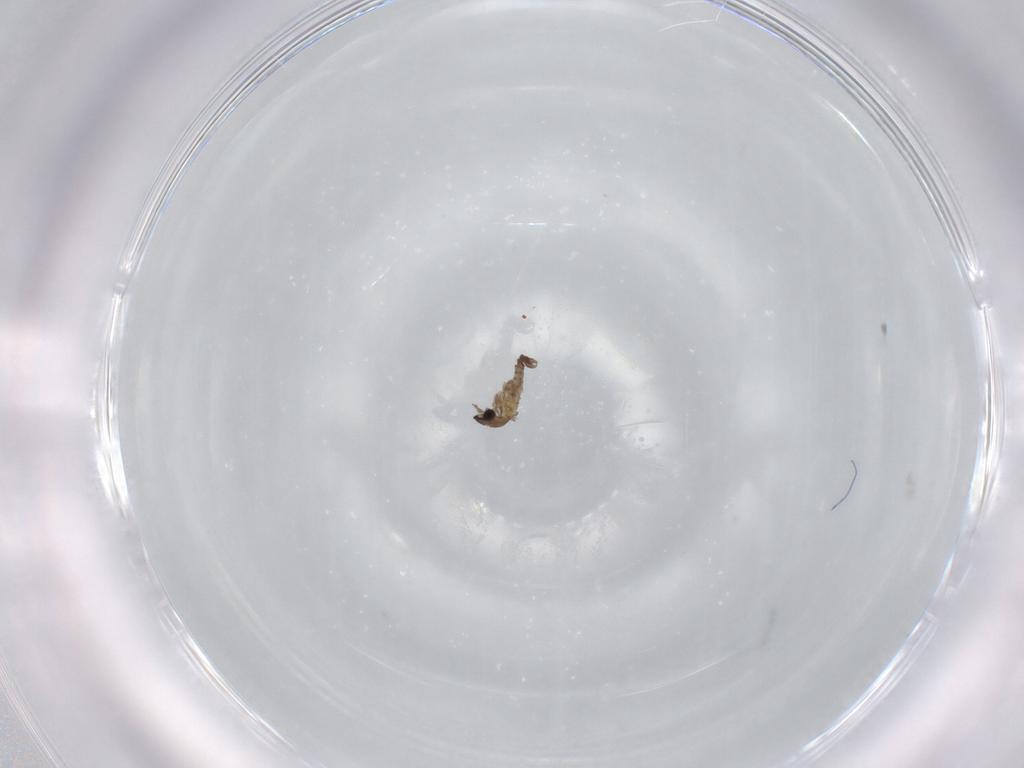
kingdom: Animalia
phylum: Arthropoda
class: Insecta
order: Diptera
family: Cecidomyiidae
